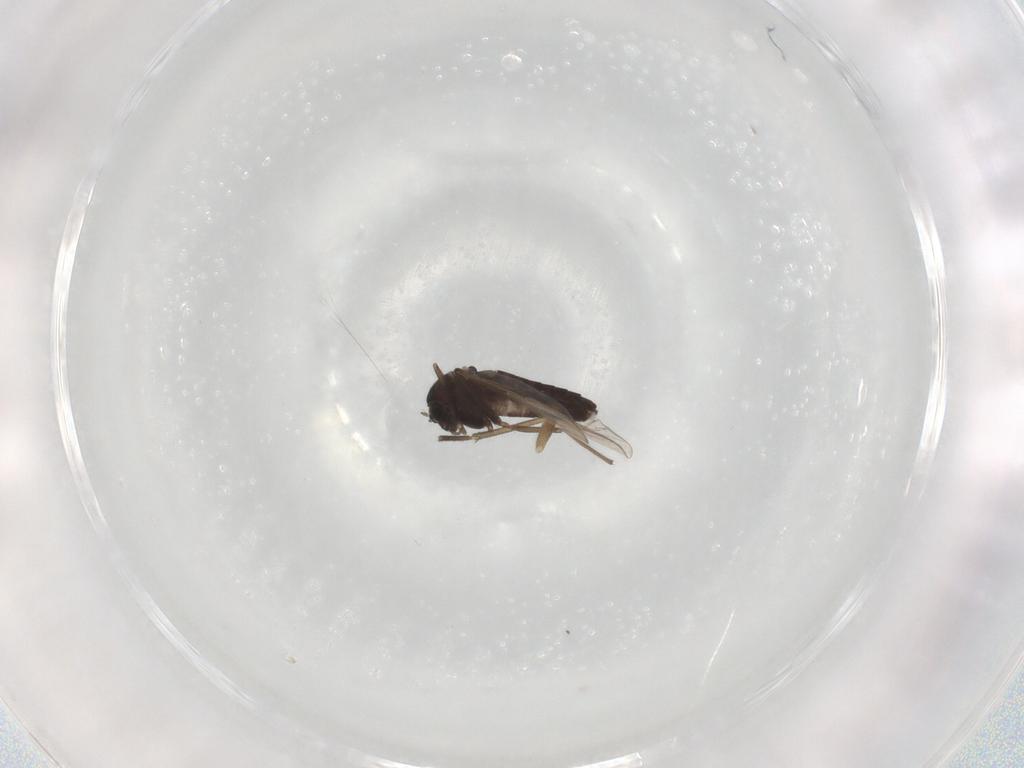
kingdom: Animalia
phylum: Arthropoda
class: Insecta
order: Diptera
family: Sciaridae
